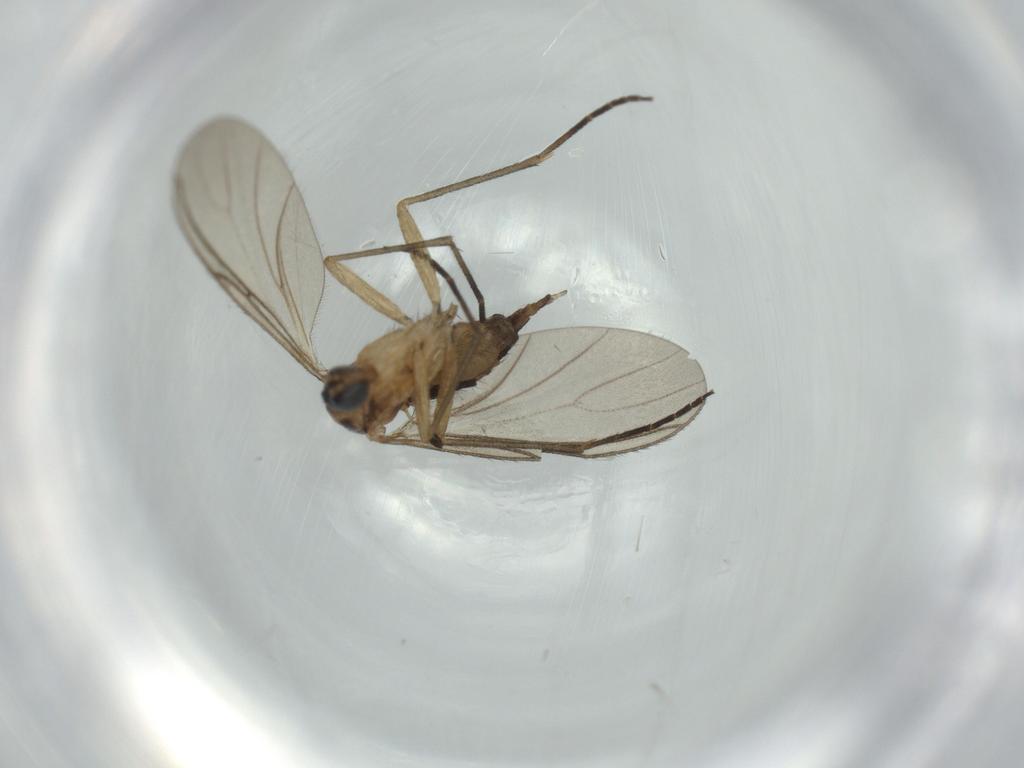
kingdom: Animalia
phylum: Arthropoda
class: Insecta
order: Diptera
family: Sciaridae
